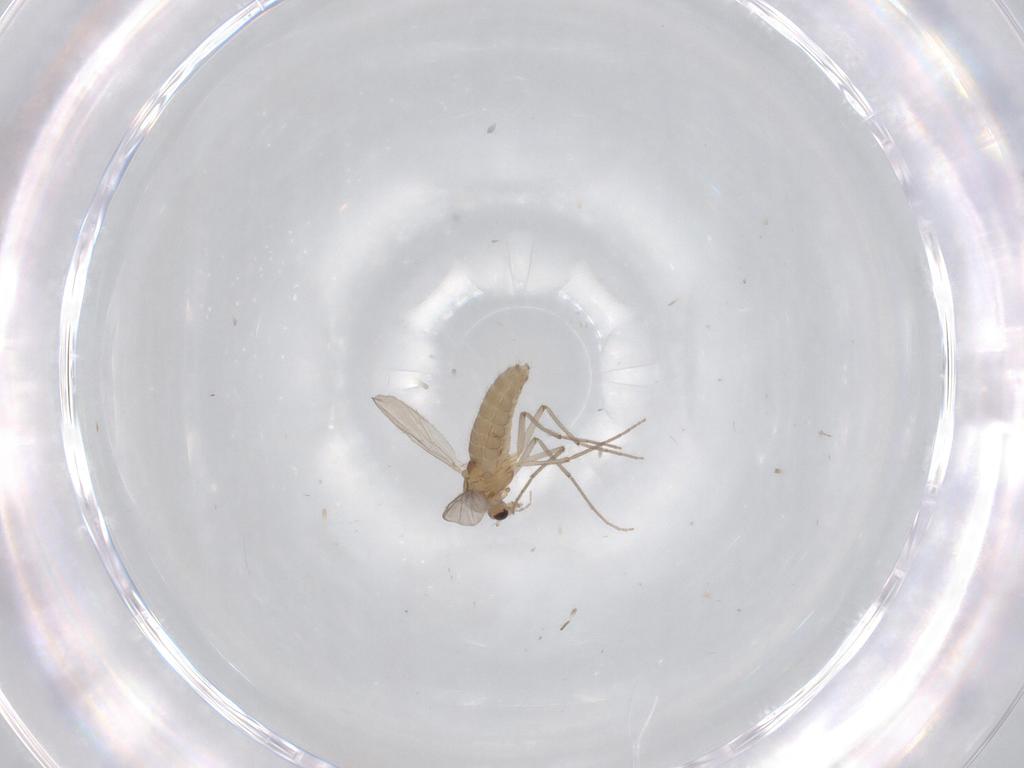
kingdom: Animalia
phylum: Arthropoda
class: Insecta
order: Diptera
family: Chironomidae
